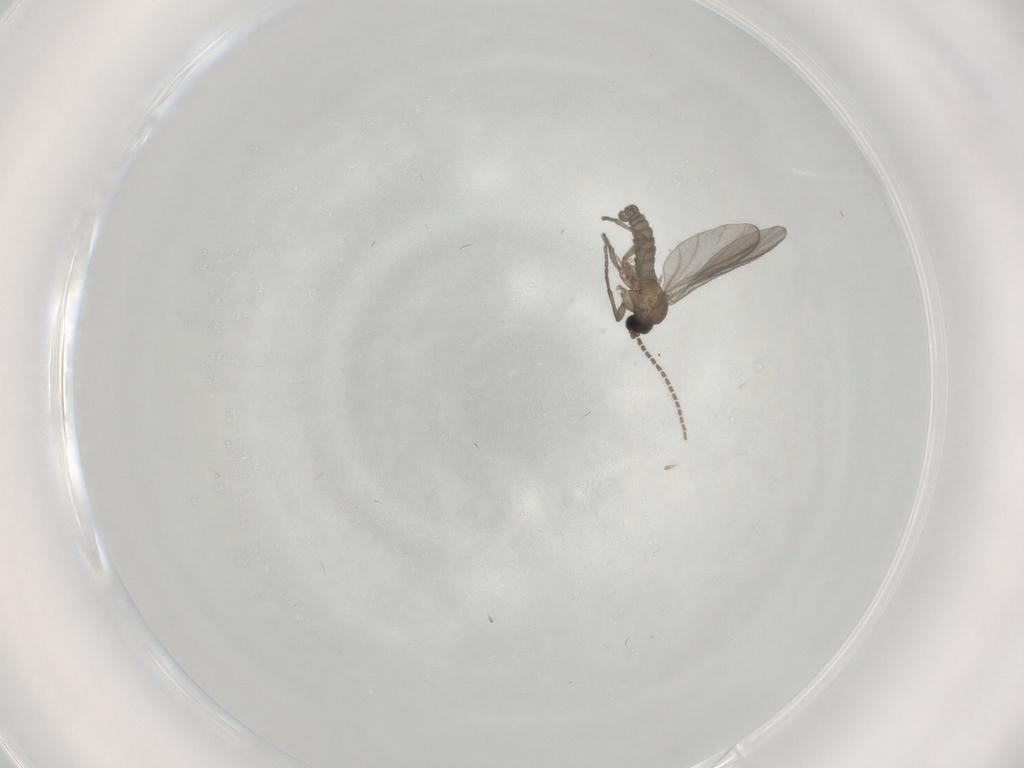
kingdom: Animalia
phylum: Arthropoda
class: Insecta
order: Diptera
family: Sciaridae
